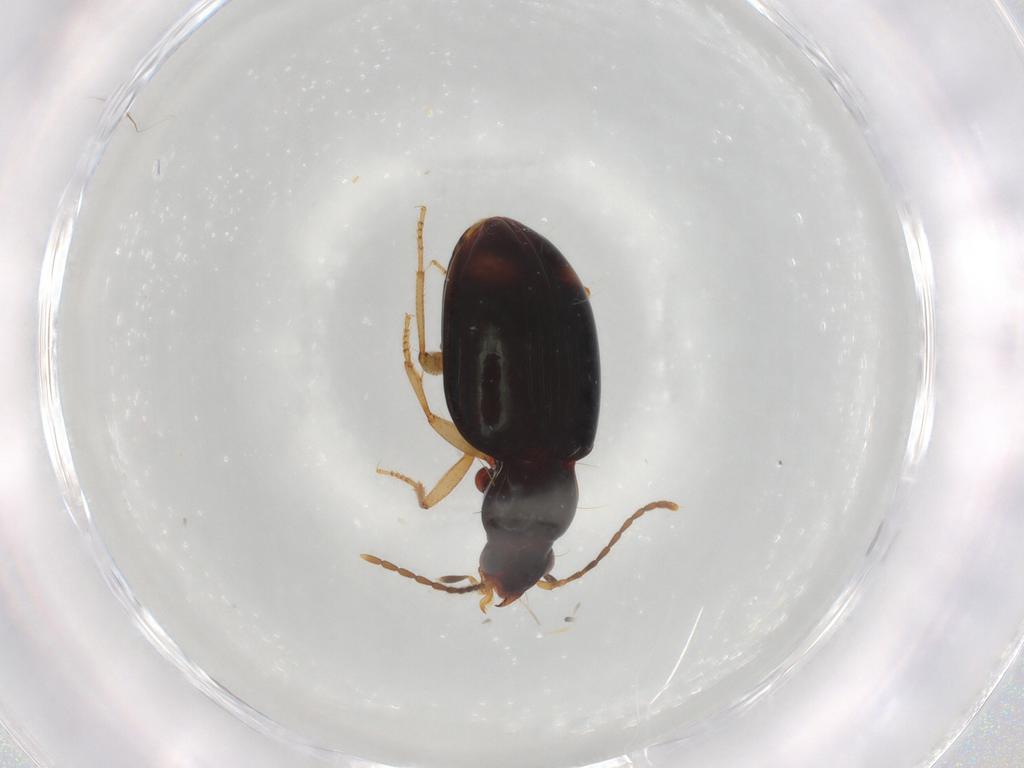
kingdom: Animalia
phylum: Arthropoda
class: Insecta
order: Coleoptera
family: Carabidae
